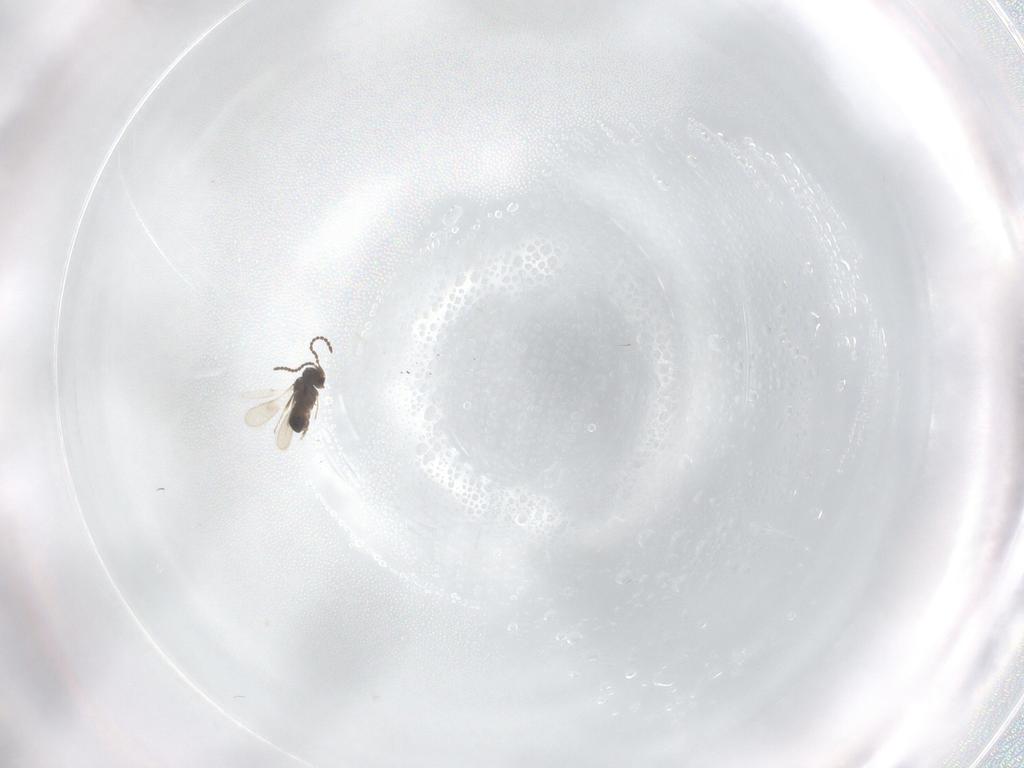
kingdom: Animalia
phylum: Arthropoda
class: Insecta
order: Hymenoptera
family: Scelionidae
